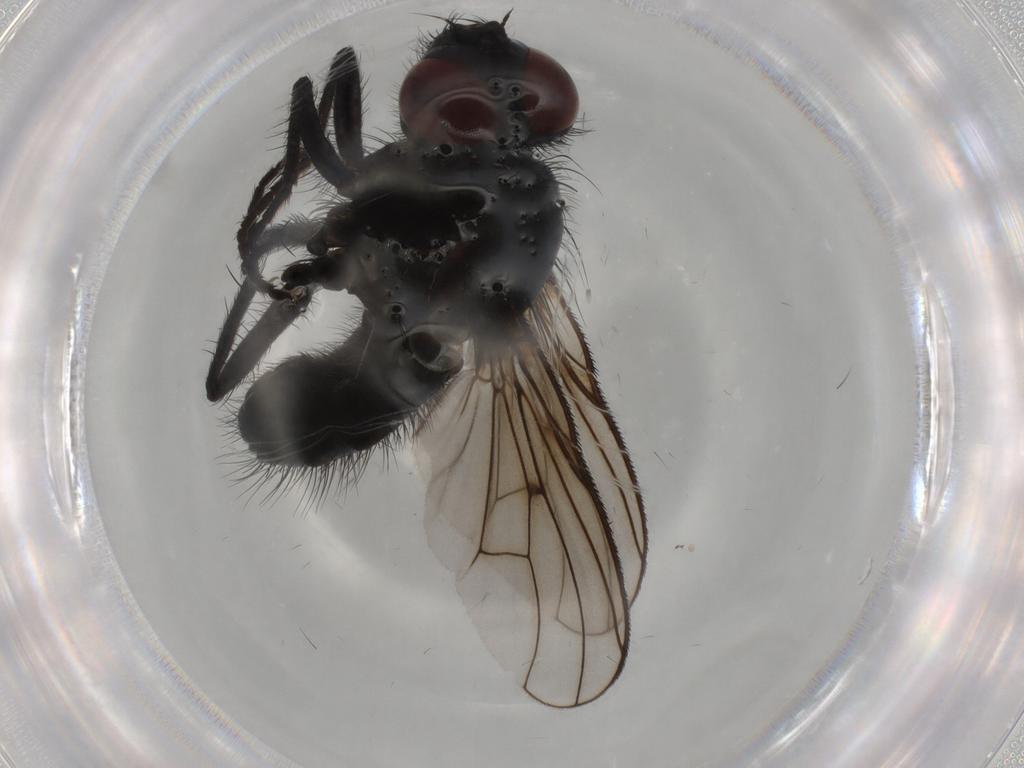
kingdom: Animalia
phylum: Arthropoda
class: Insecta
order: Diptera
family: Muscidae
